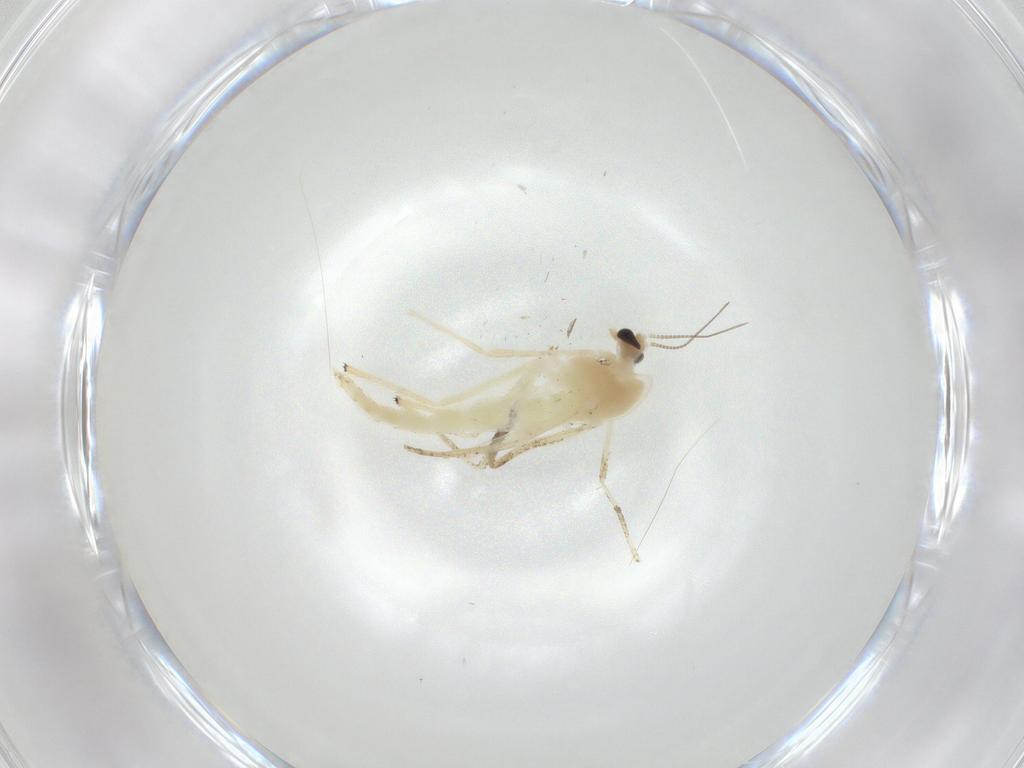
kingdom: Animalia
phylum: Arthropoda
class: Insecta
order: Diptera
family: Chironomidae
